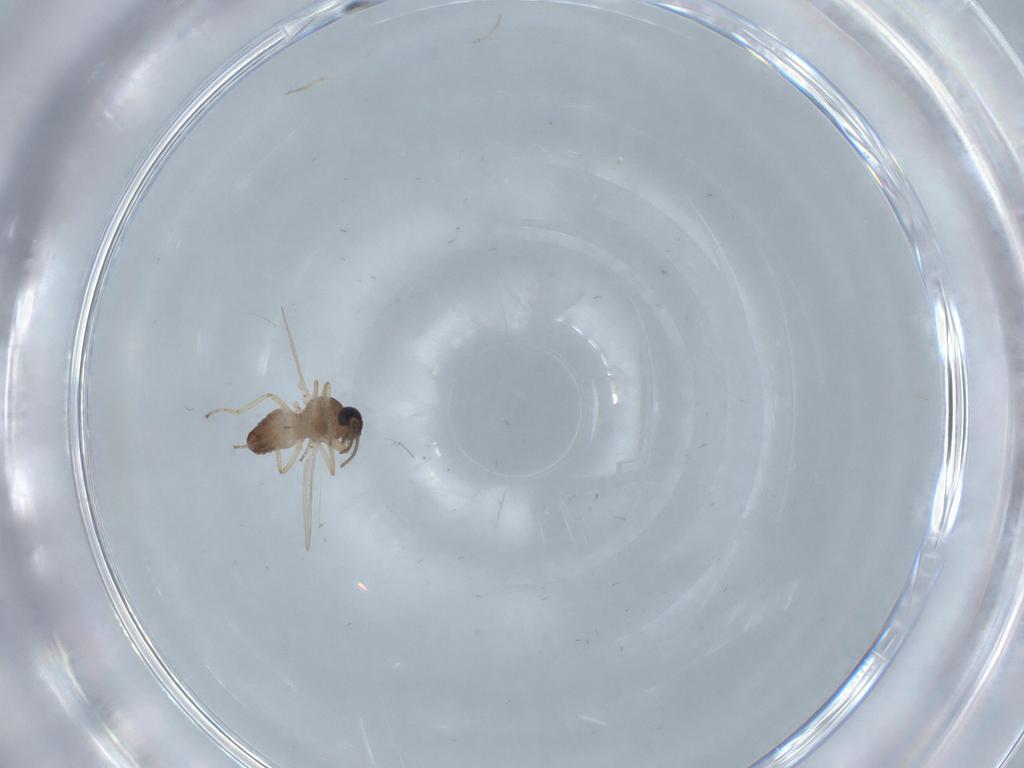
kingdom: Animalia
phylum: Arthropoda
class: Insecta
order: Diptera
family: Ceratopogonidae
